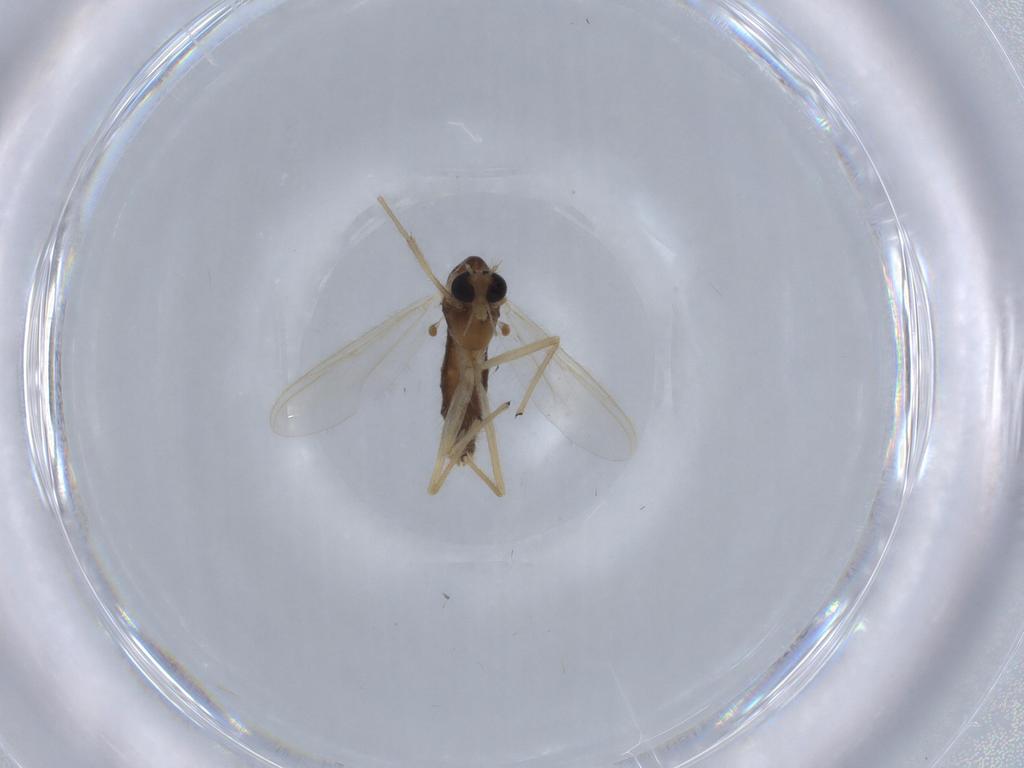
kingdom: Animalia
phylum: Arthropoda
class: Insecta
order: Diptera
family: Chironomidae
